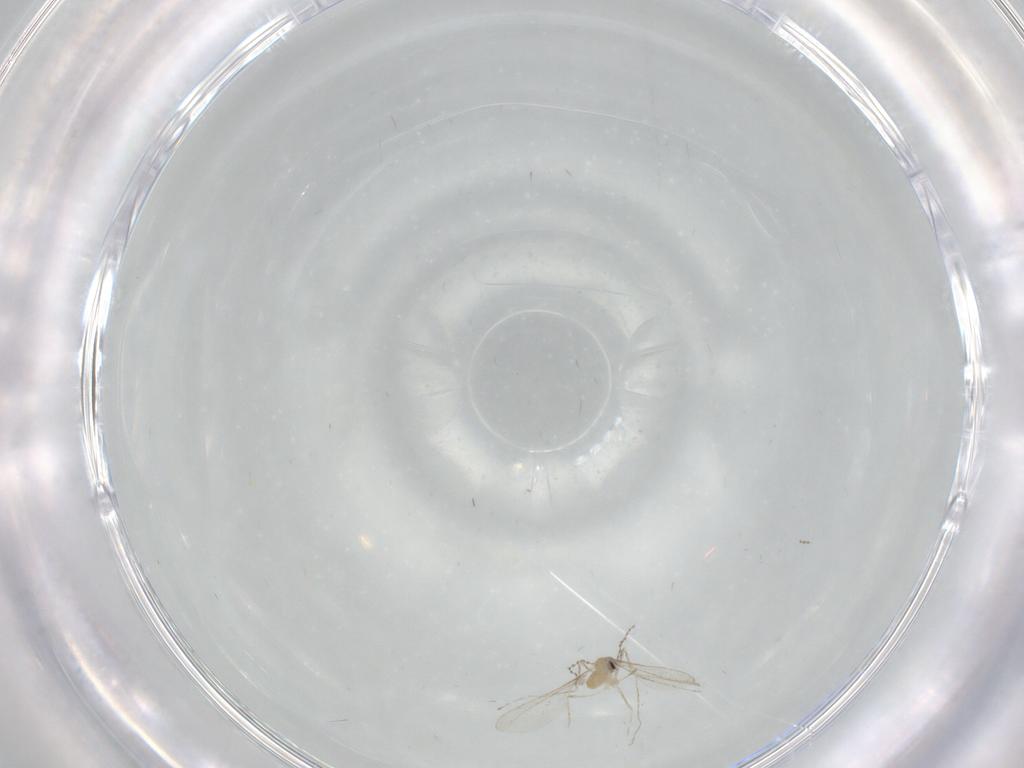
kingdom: Animalia
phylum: Arthropoda
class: Insecta
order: Diptera
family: Cecidomyiidae
